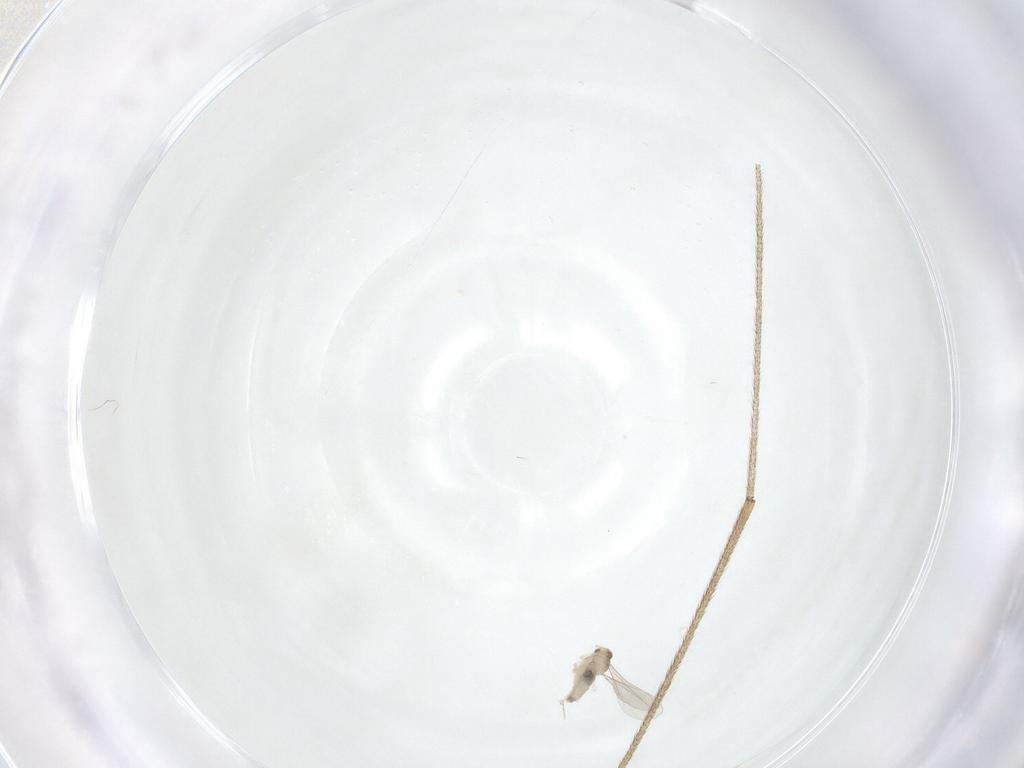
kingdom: Animalia
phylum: Arthropoda
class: Insecta
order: Diptera
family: Limoniidae
